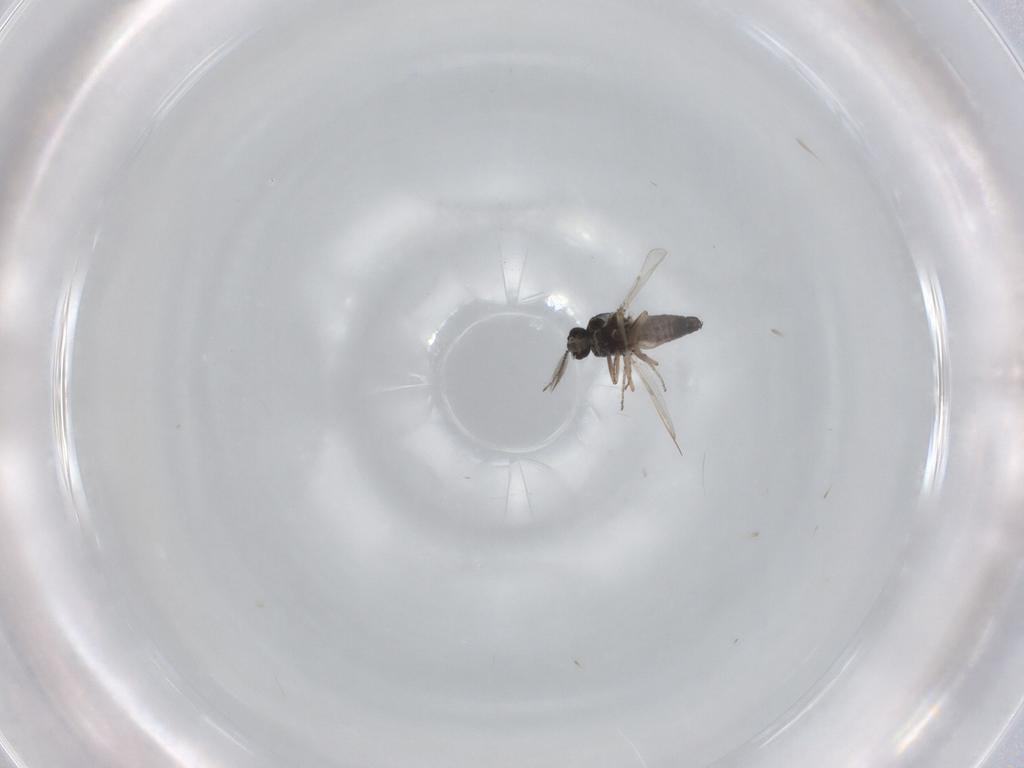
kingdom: Animalia
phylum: Arthropoda
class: Insecta
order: Diptera
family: Ceratopogonidae
